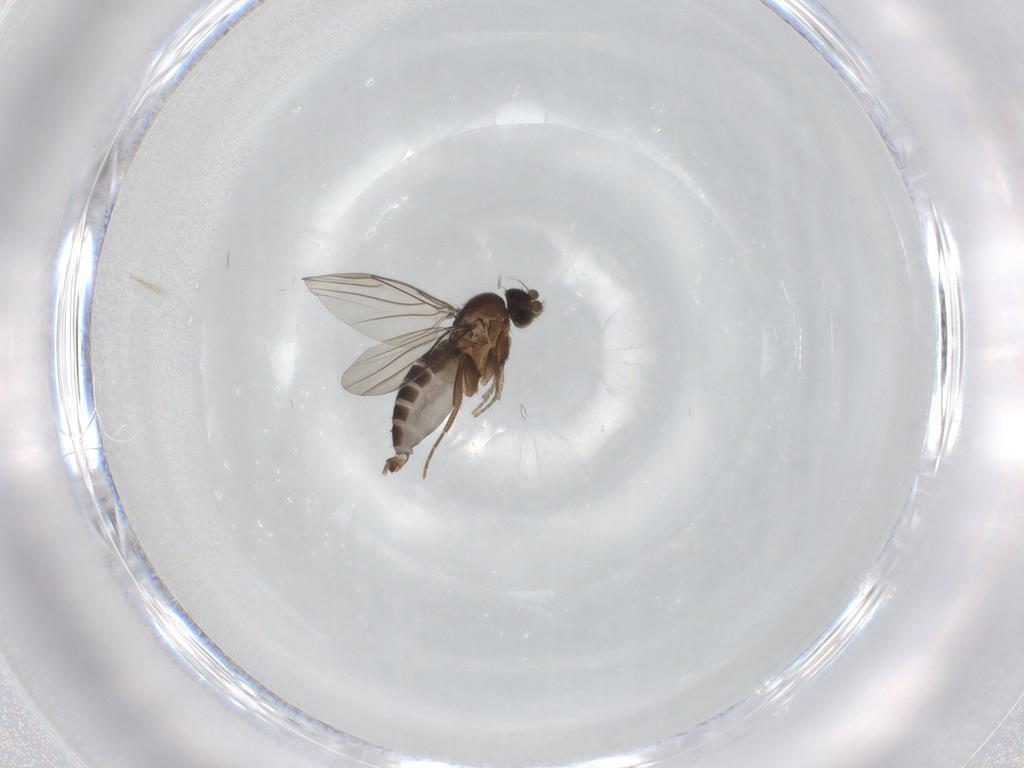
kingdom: Animalia
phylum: Arthropoda
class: Insecta
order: Diptera
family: Phoridae
